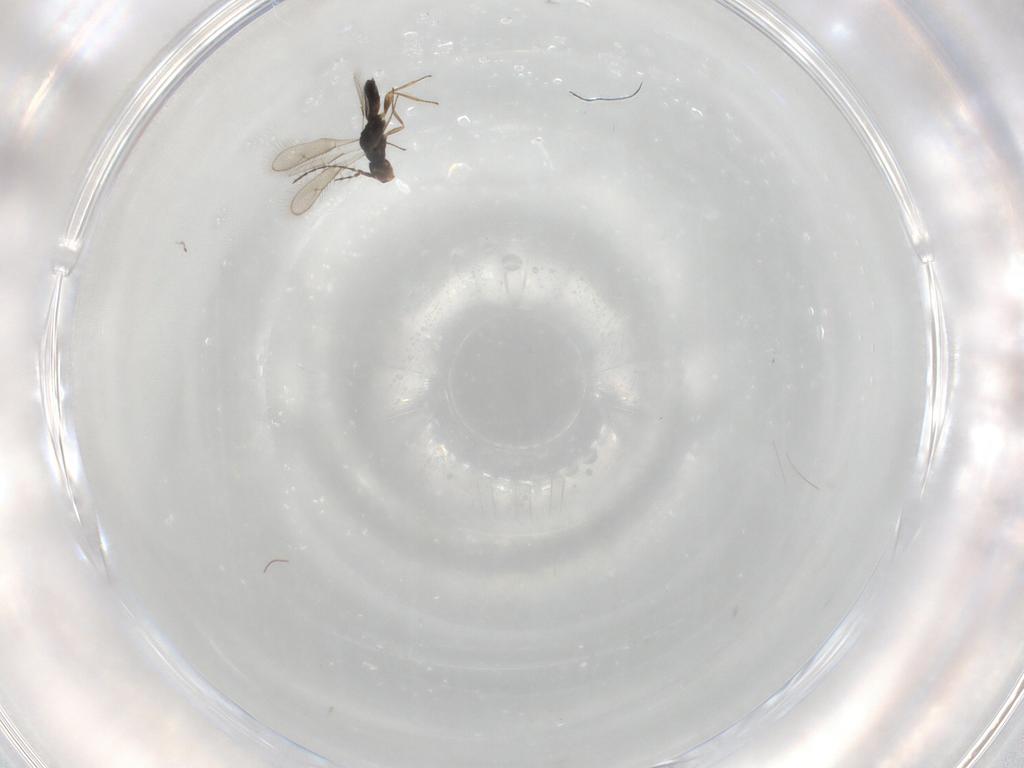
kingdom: Animalia
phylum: Arthropoda
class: Insecta
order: Hymenoptera
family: Pteromalidae
